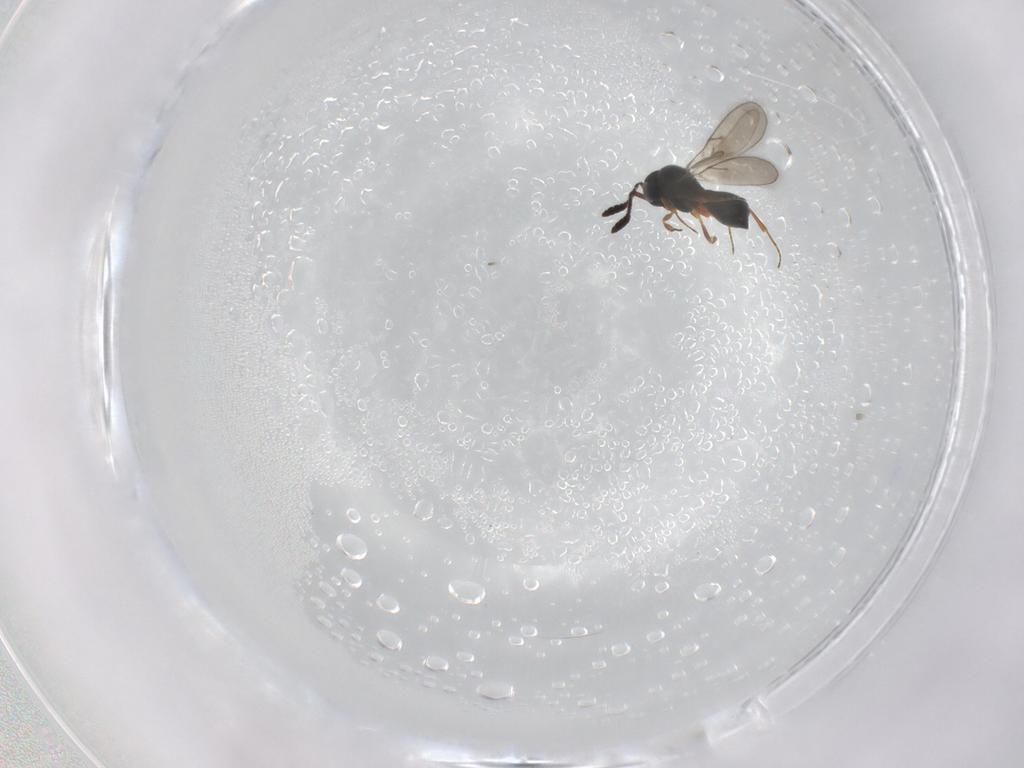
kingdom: Animalia
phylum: Arthropoda
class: Insecta
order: Hymenoptera
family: Scelionidae
